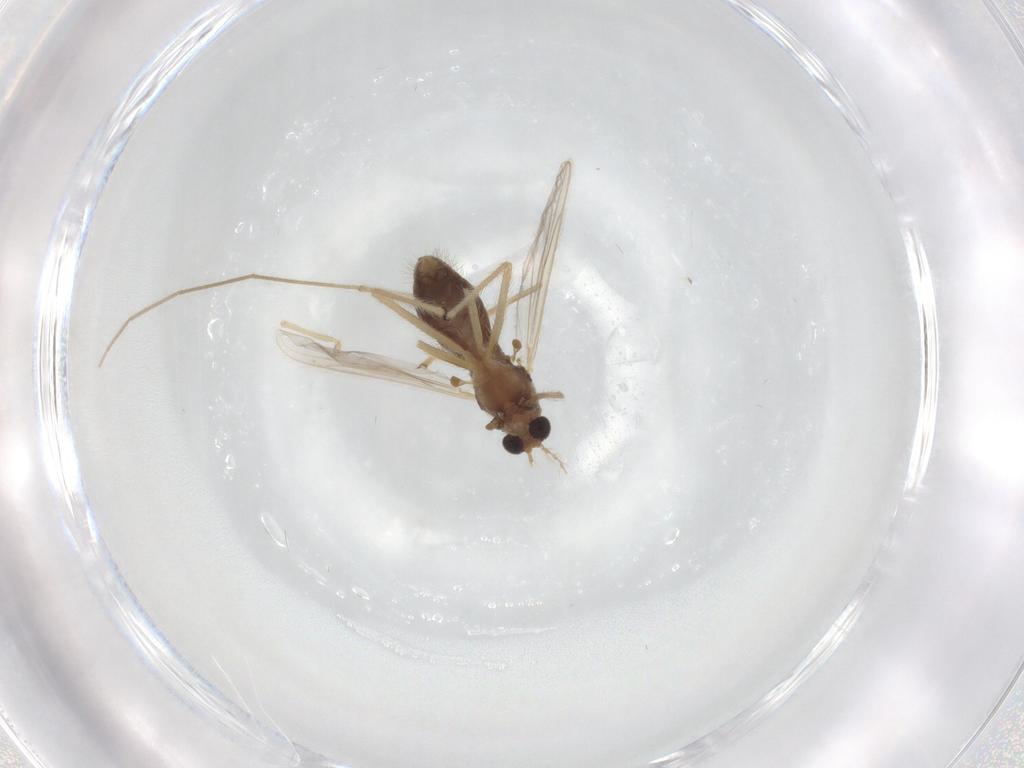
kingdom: Animalia
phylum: Arthropoda
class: Insecta
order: Diptera
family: Chironomidae
